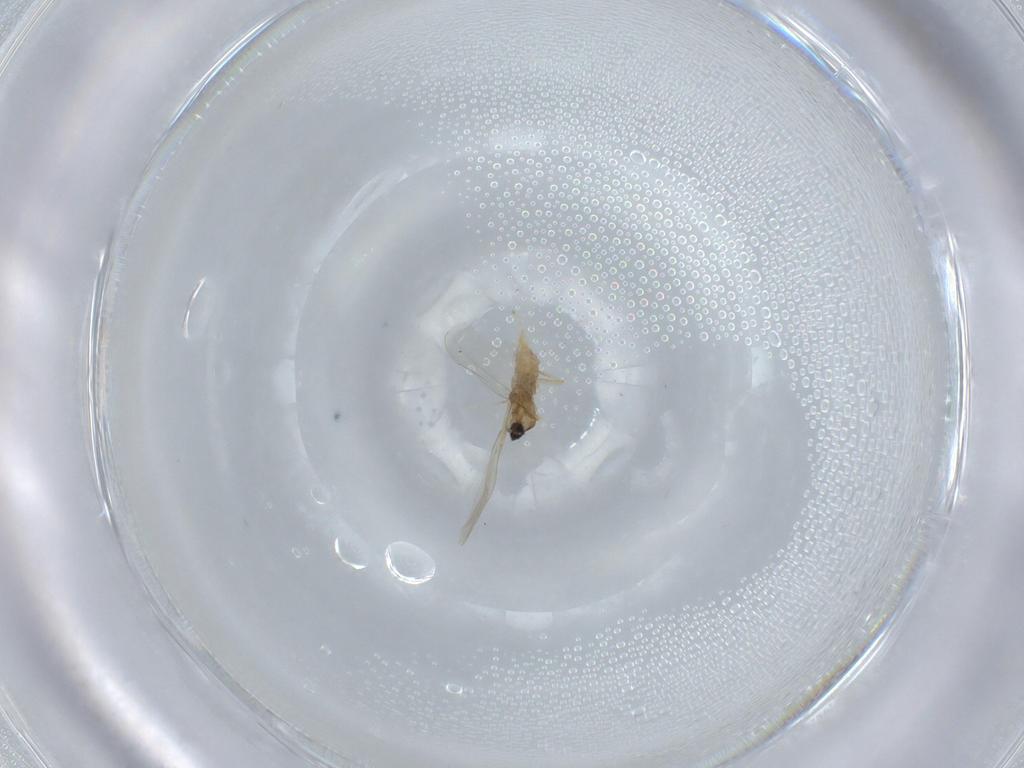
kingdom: Animalia
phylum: Arthropoda
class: Insecta
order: Diptera
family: Cecidomyiidae
